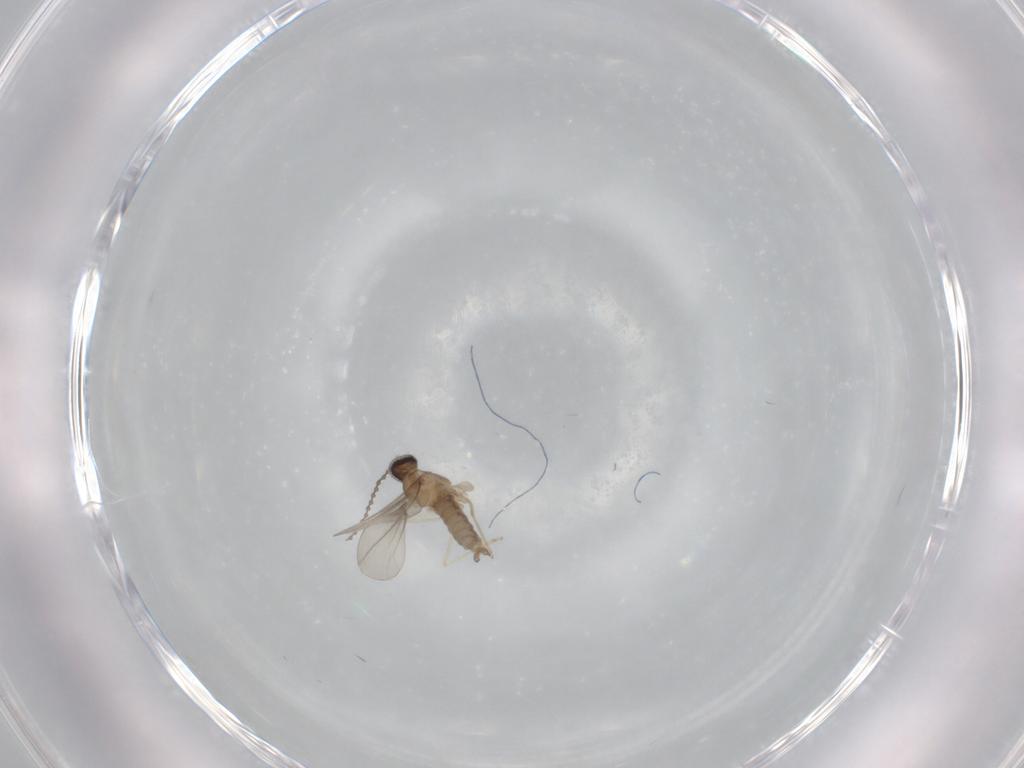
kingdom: Animalia
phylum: Arthropoda
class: Insecta
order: Diptera
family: Cecidomyiidae
